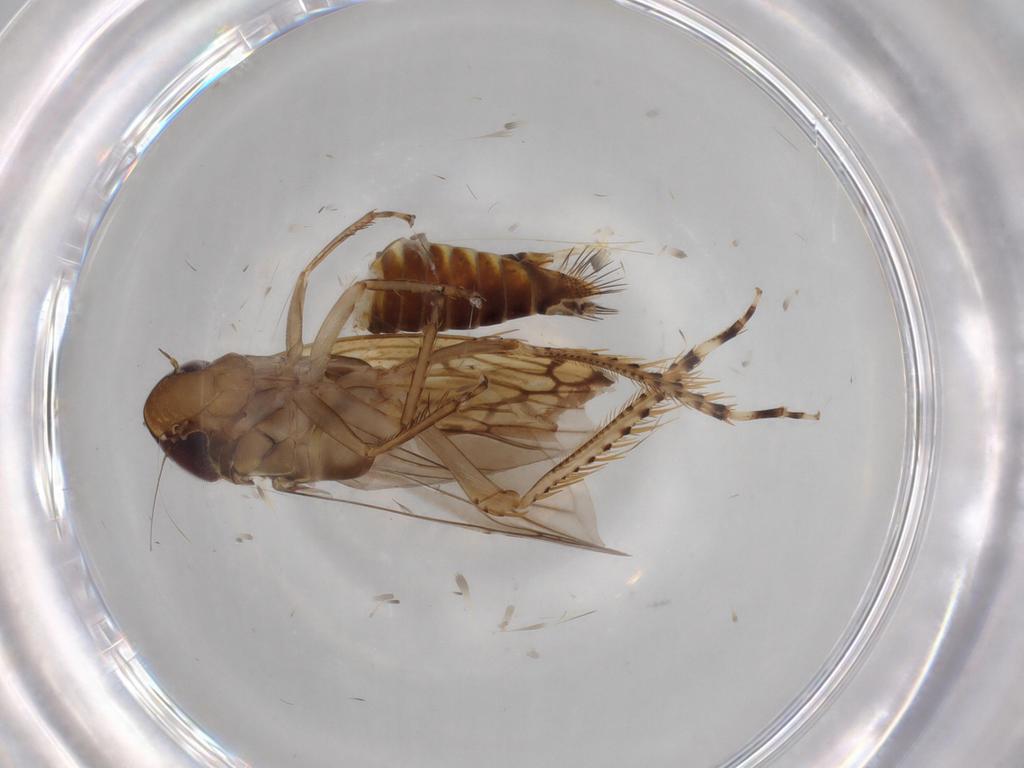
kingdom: Animalia
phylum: Arthropoda
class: Insecta
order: Hemiptera
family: Cicadellidae
